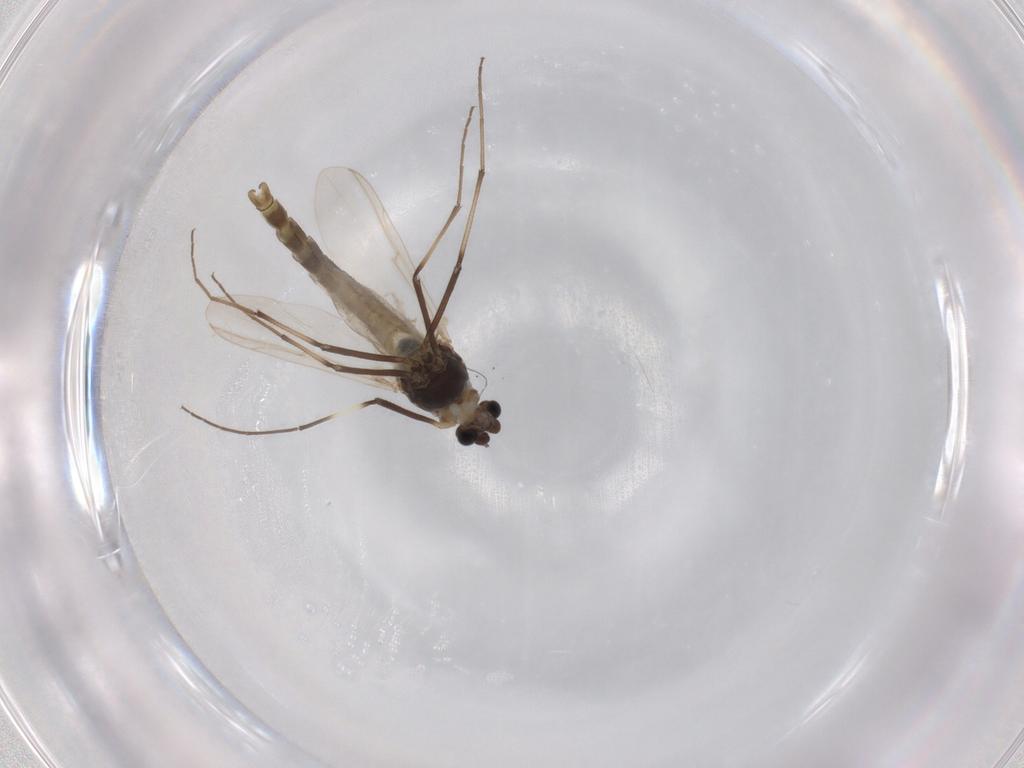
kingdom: Animalia
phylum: Arthropoda
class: Insecta
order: Diptera
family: Chironomidae
